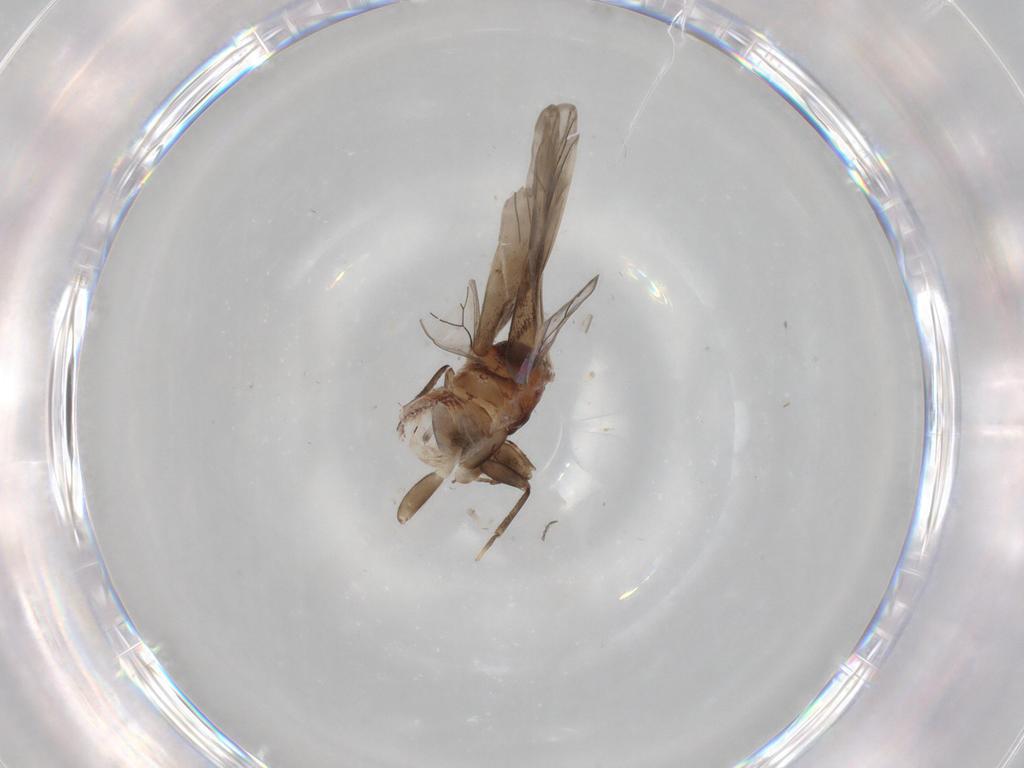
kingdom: Animalia
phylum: Arthropoda
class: Insecta
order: Psocodea
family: Amphientomidae
